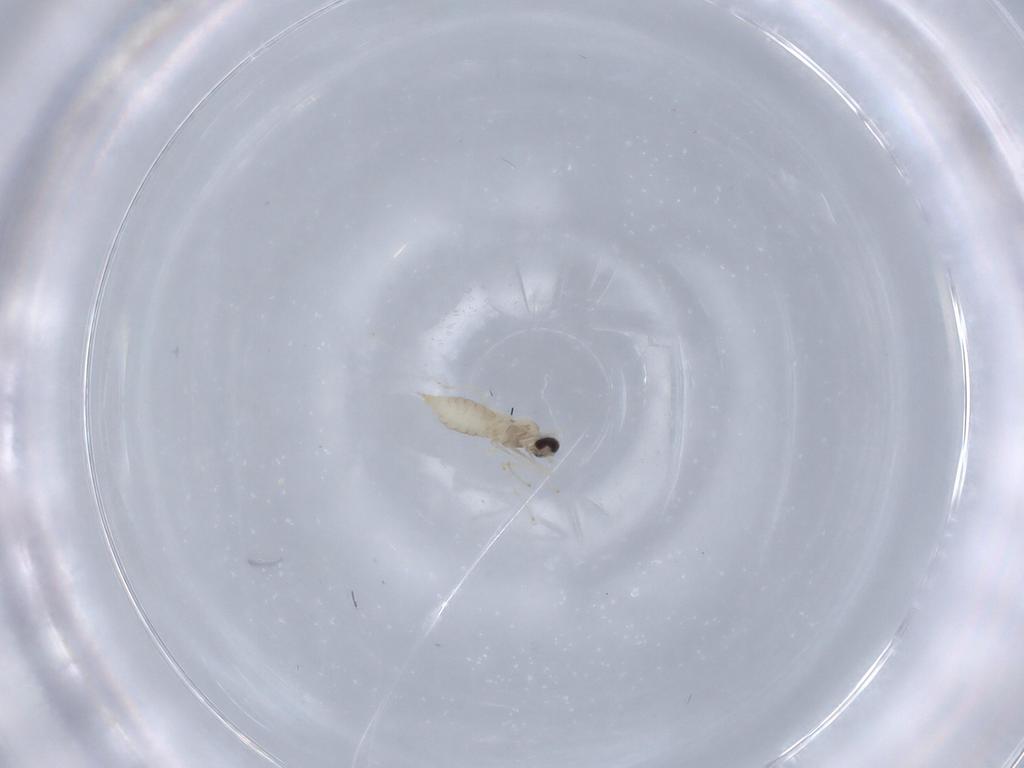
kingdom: Animalia
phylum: Arthropoda
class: Insecta
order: Diptera
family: Cecidomyiidae
